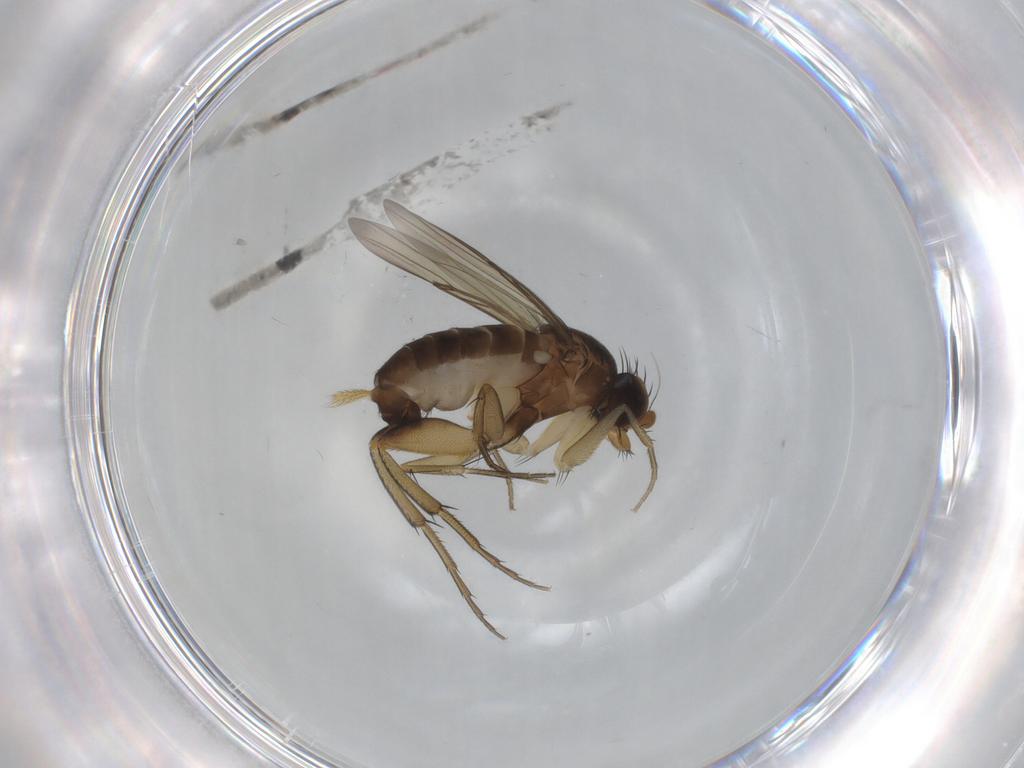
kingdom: Animalia
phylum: Arthropoda
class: Insecta
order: Diptera
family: Phoridae
